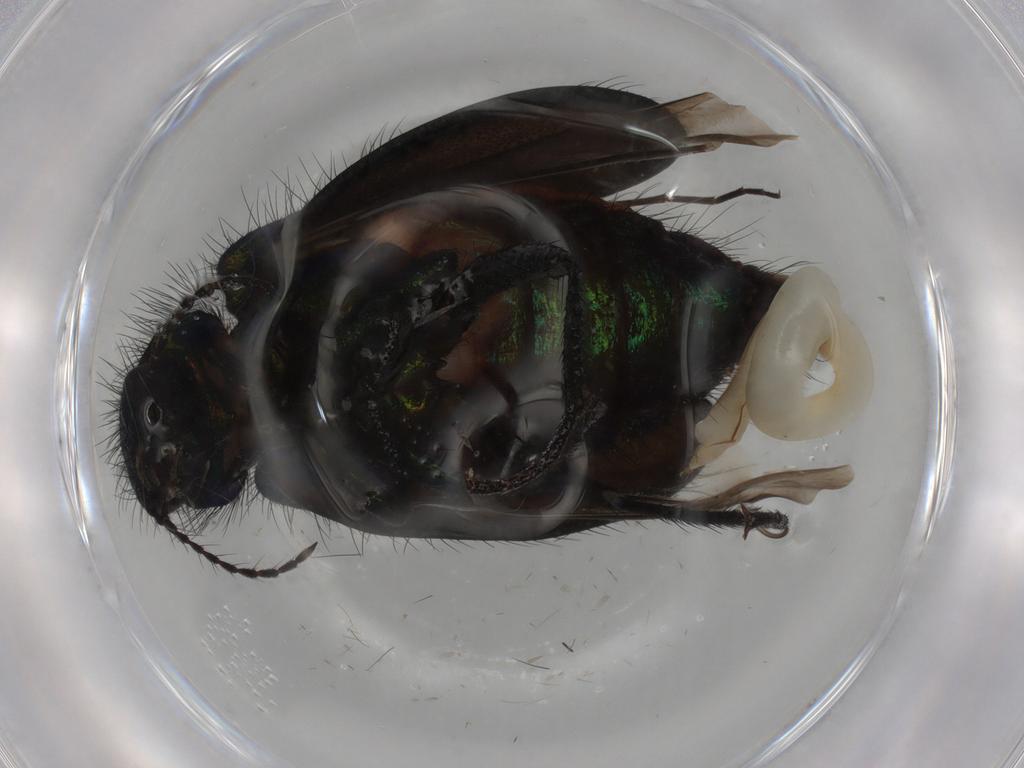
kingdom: Animalia
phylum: Arthropoda
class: Insecta
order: Coleoptera
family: Melyridae
